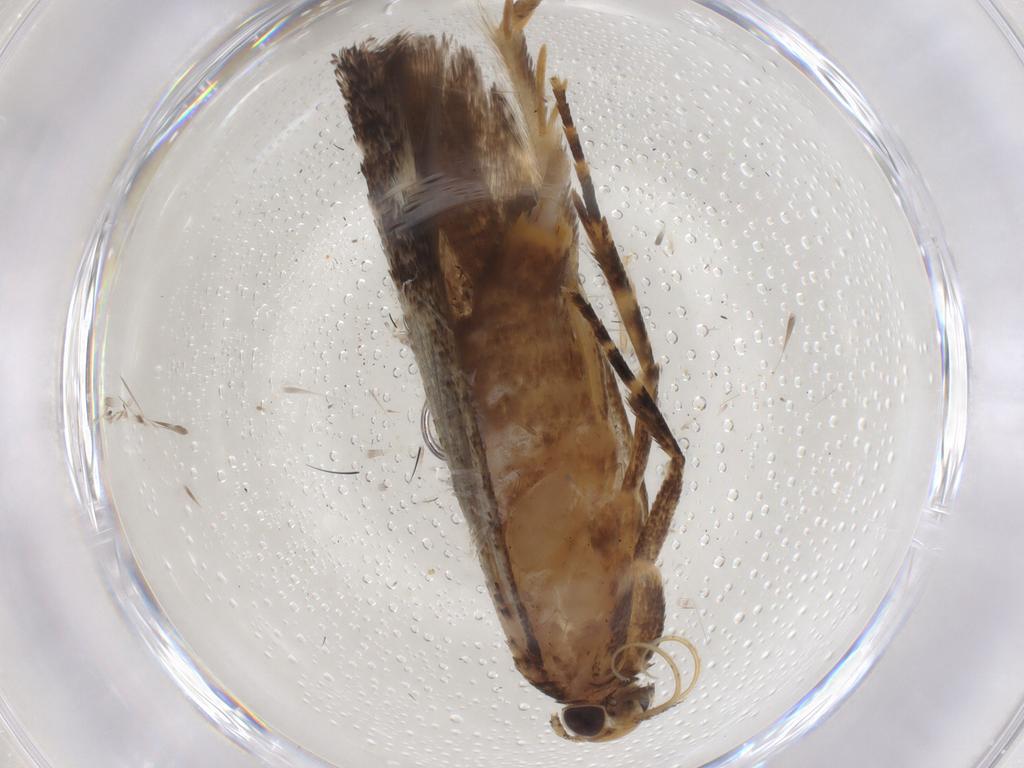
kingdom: Animalia
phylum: Arthropoda
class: Insecta
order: Lepidoptera
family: Gelechiidae
